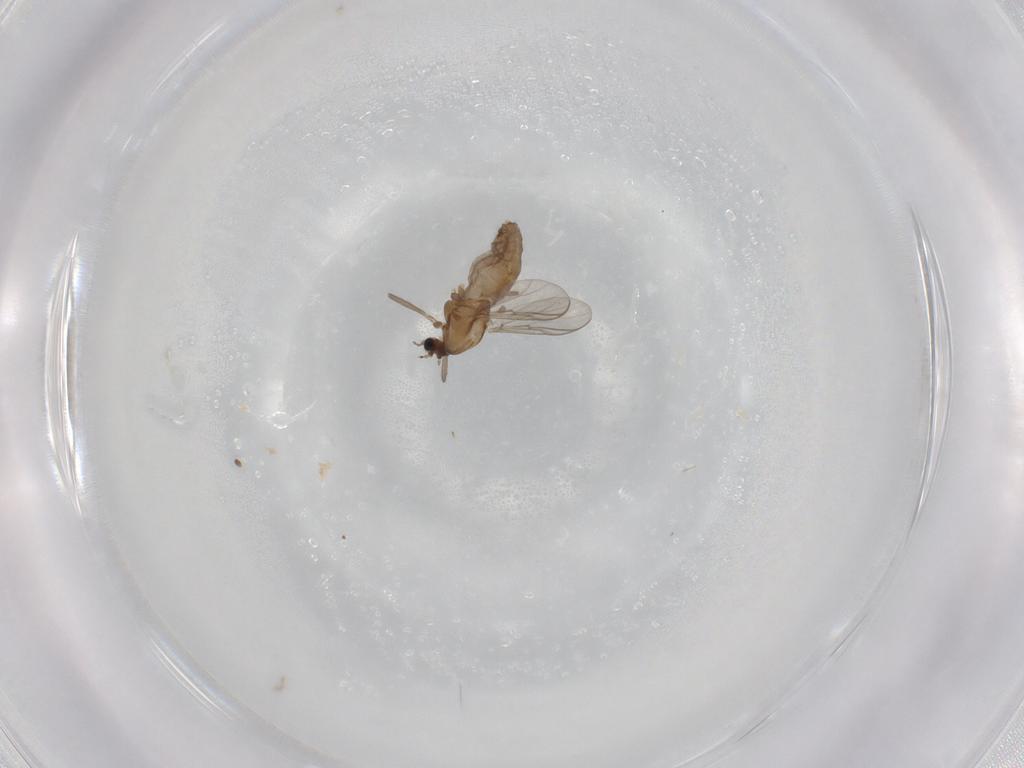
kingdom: Animalia
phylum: Arthropoda
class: Insecta
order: Diptera
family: Chironomidae
